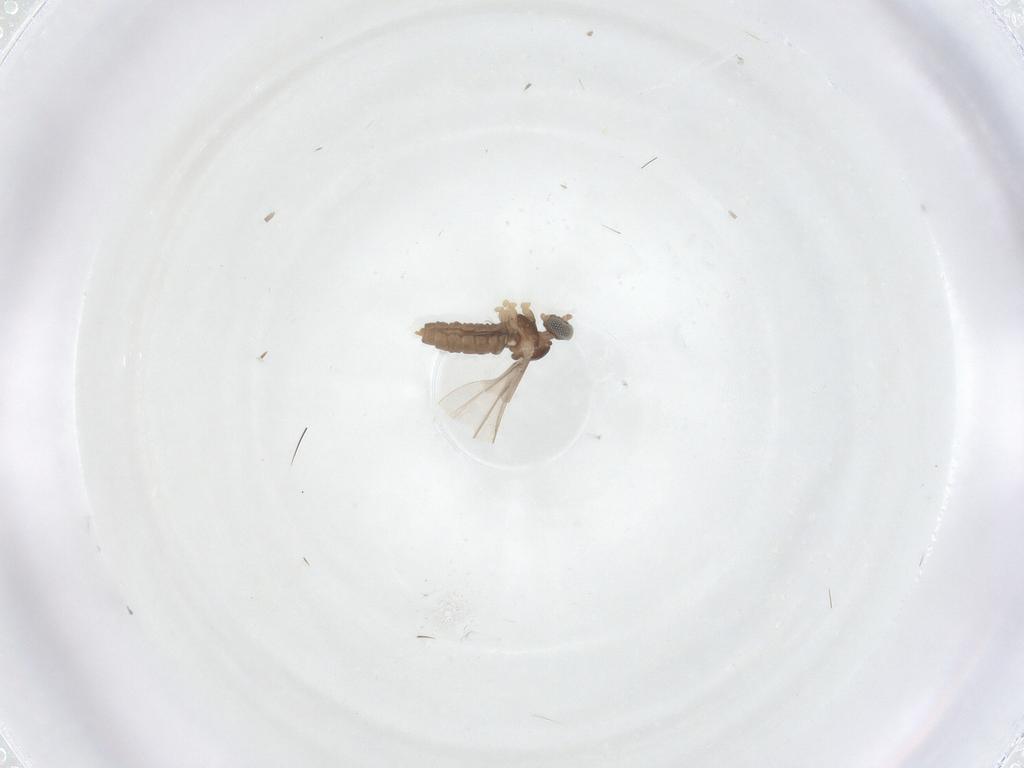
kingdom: Animalia
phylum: Arthropoda
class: Insecta
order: Diptera
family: Cecidomyiidae
